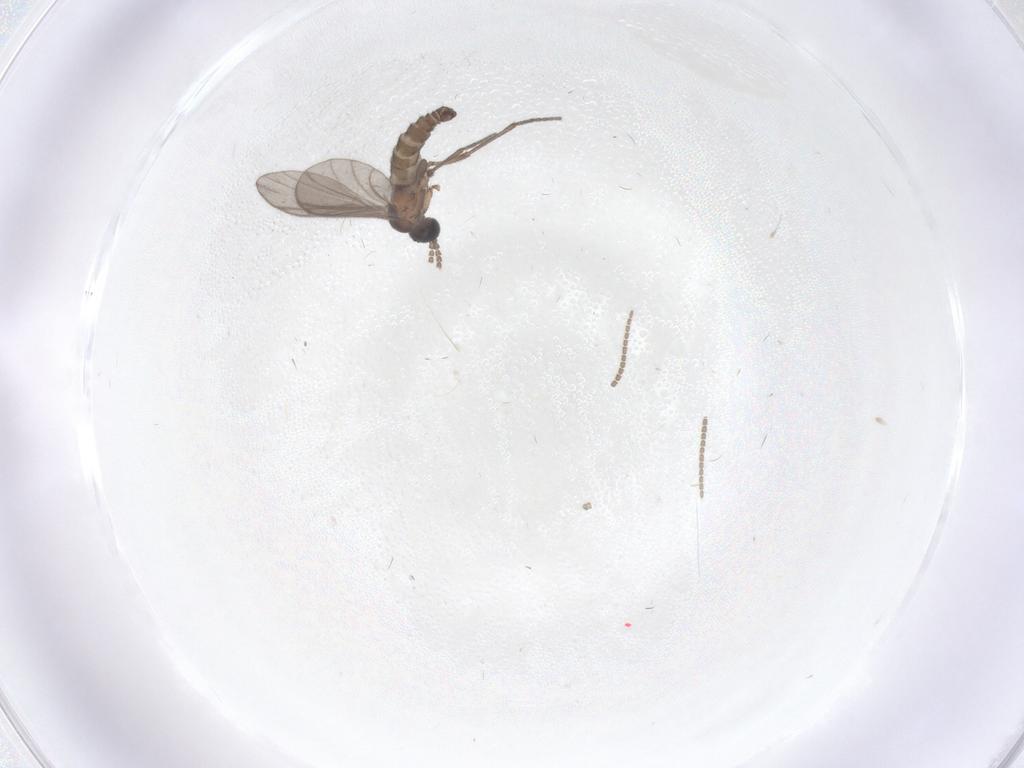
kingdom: Animalia
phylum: Arthropoda
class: Insecta
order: Diptera
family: Sciaridae
